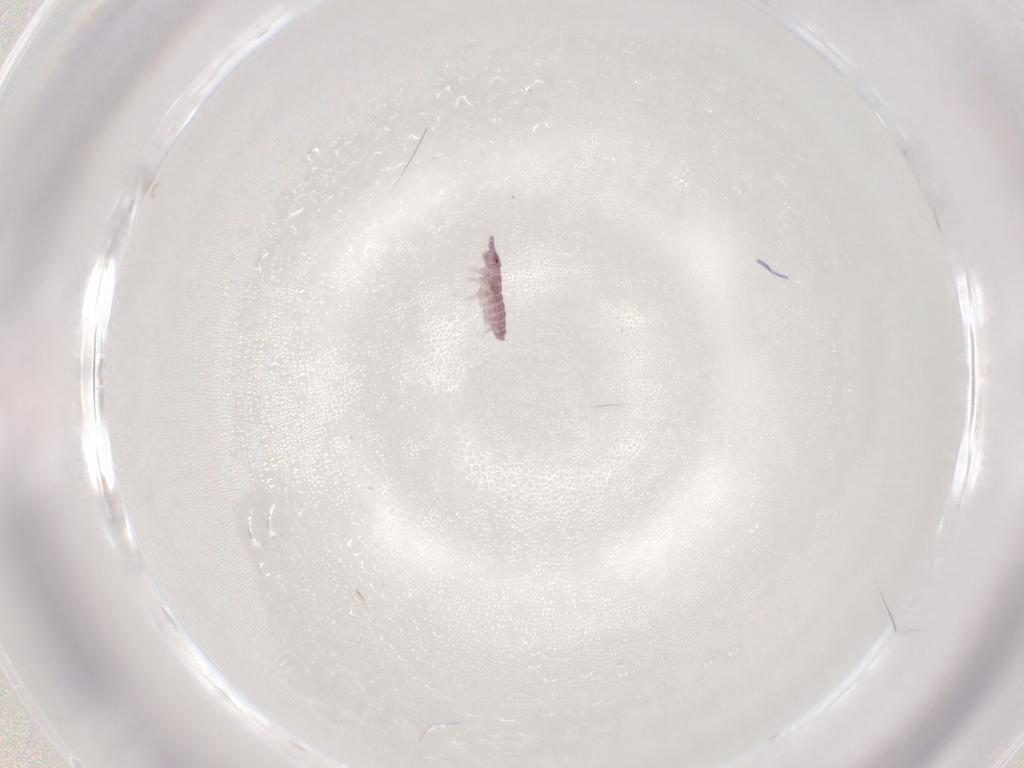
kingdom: Animalia
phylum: Arthropoda
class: Collembola
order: Poduromorpha
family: Hypogastruridae
